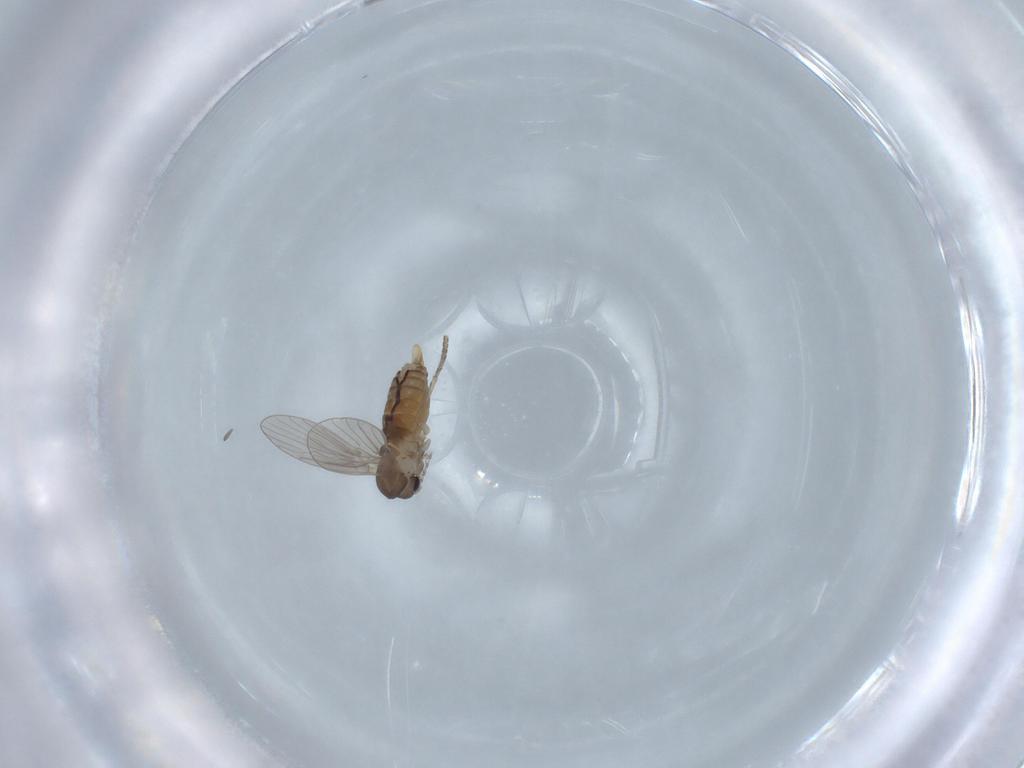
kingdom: Animalia
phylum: Arthropoda
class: Insecta
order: Diptera
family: Psychodidae
